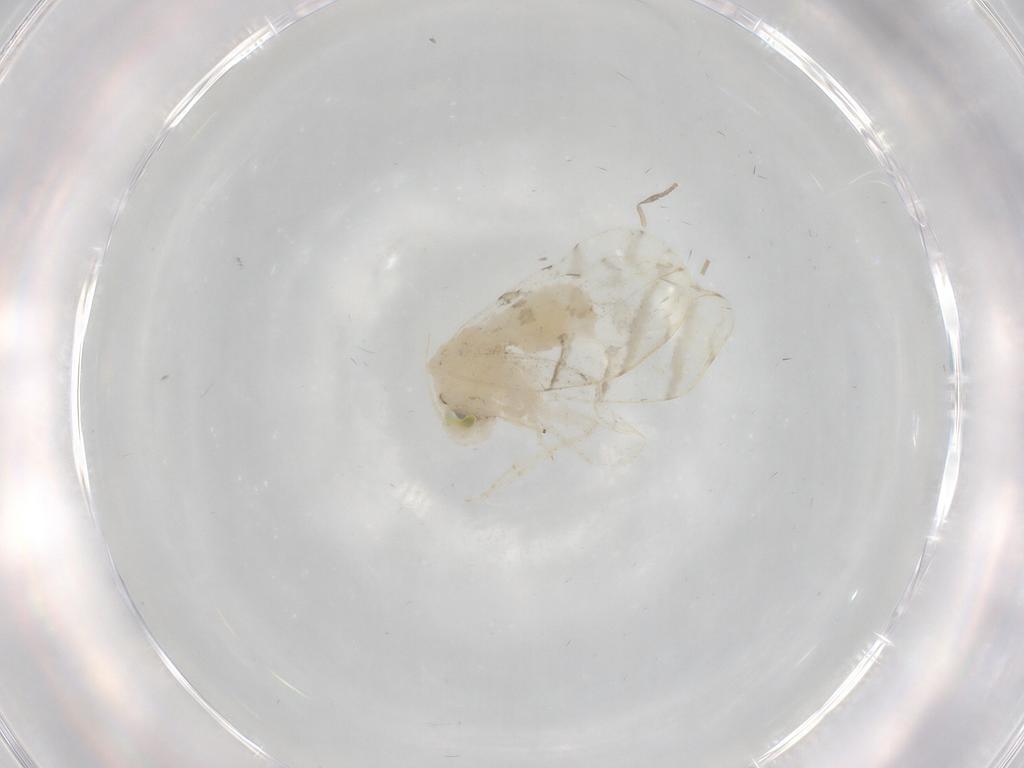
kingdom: Animalia
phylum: Arthropoda
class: Insecta
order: Hemiptera
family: Aleyrodidae
